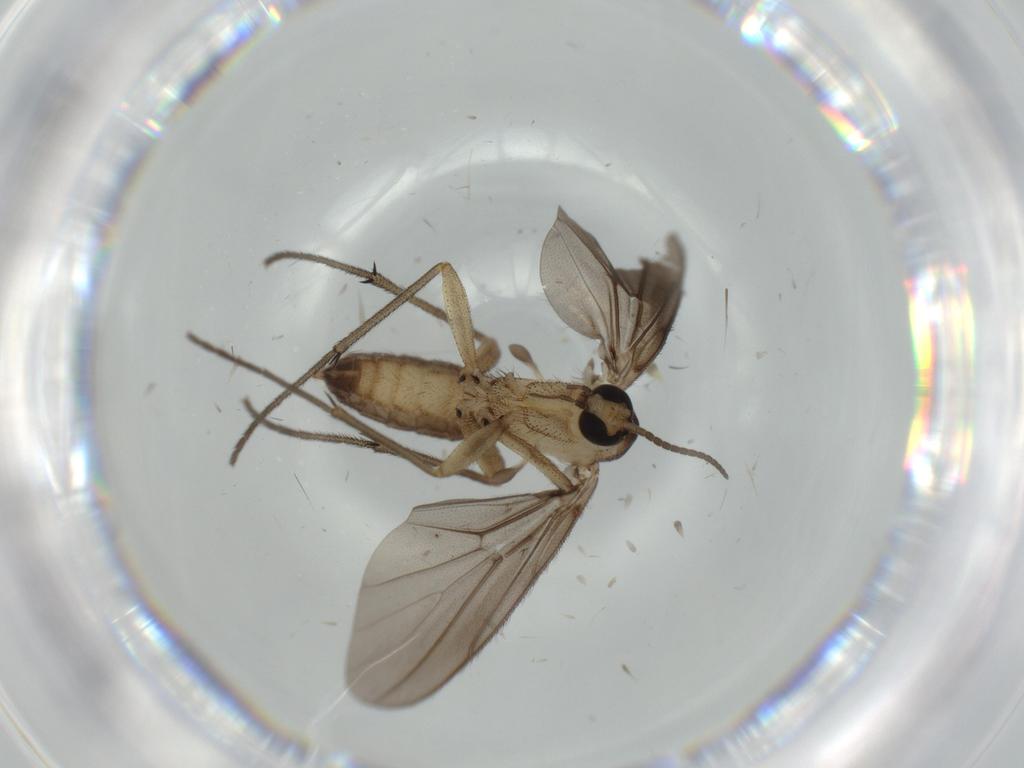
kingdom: Animalia
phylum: Arthropoda
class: Insecta
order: Diptera
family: Diadocidiidae
